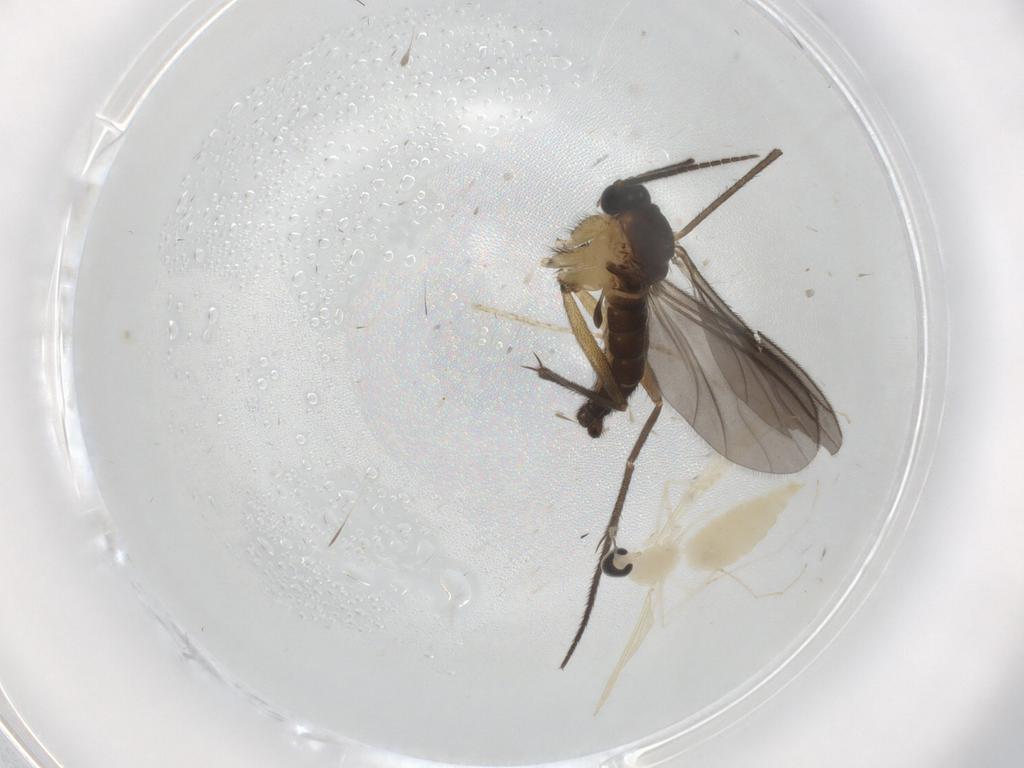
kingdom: Animalia
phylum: Arthropoda
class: Insecta
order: Diptera
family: Sciaridae
